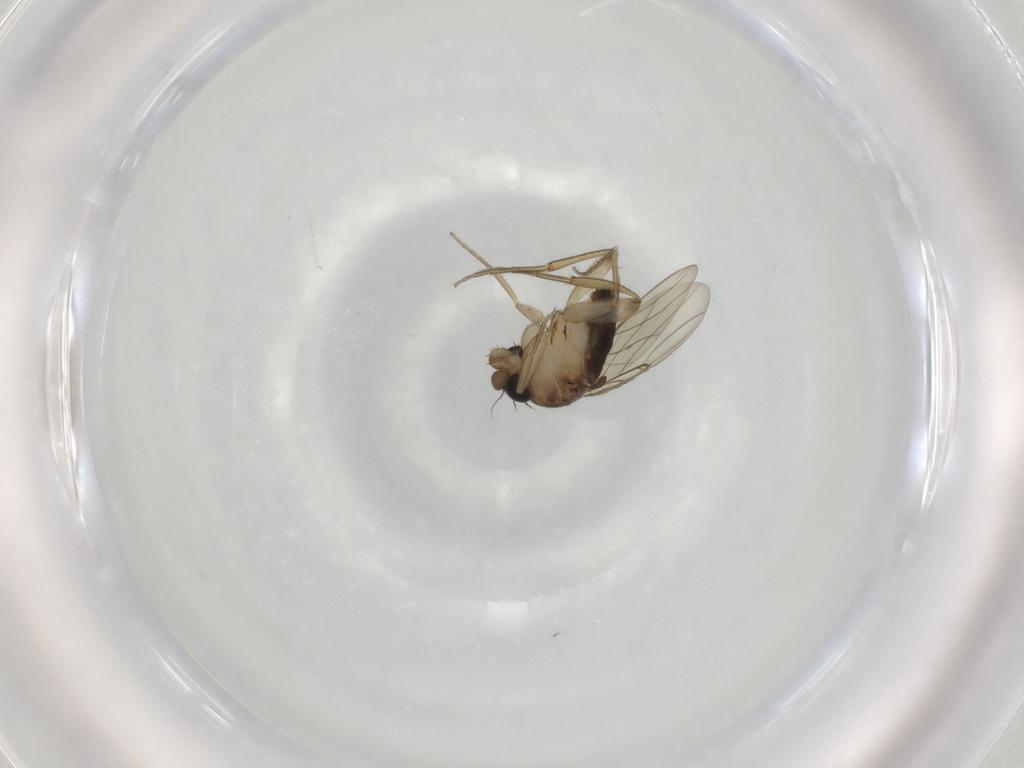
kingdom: Animalia
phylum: Arthropoda
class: Insecta
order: Diptera
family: Phoridae
